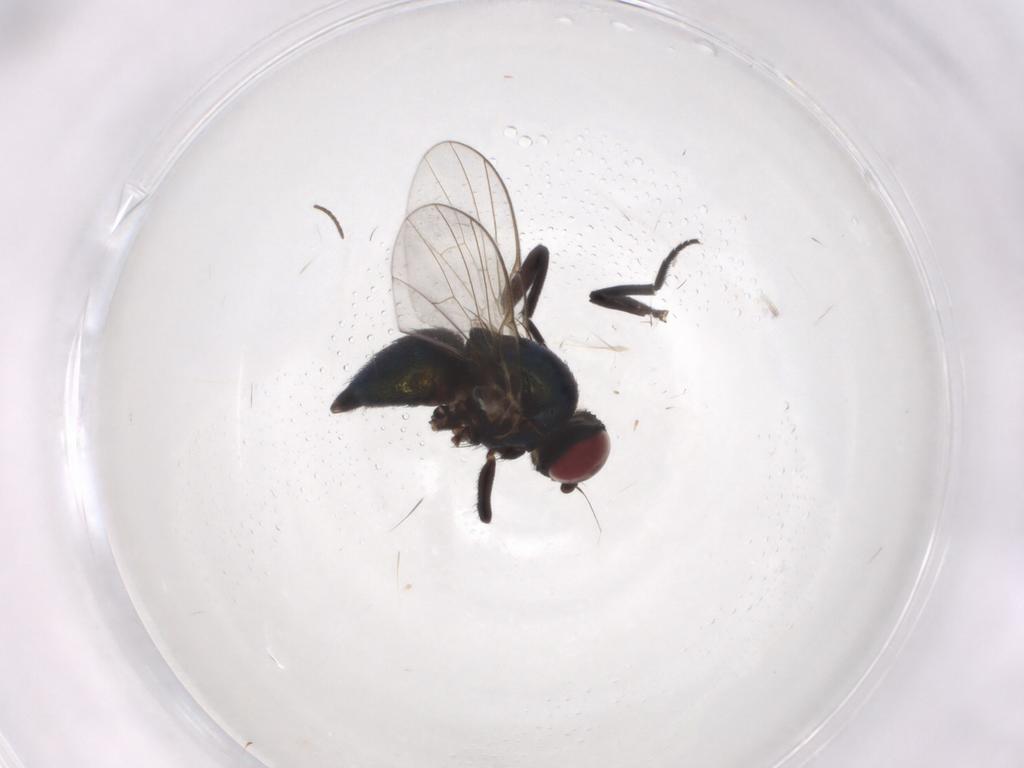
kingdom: Animalia
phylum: Arthropoda
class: Insecta
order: Diptera
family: Agromyzidae
